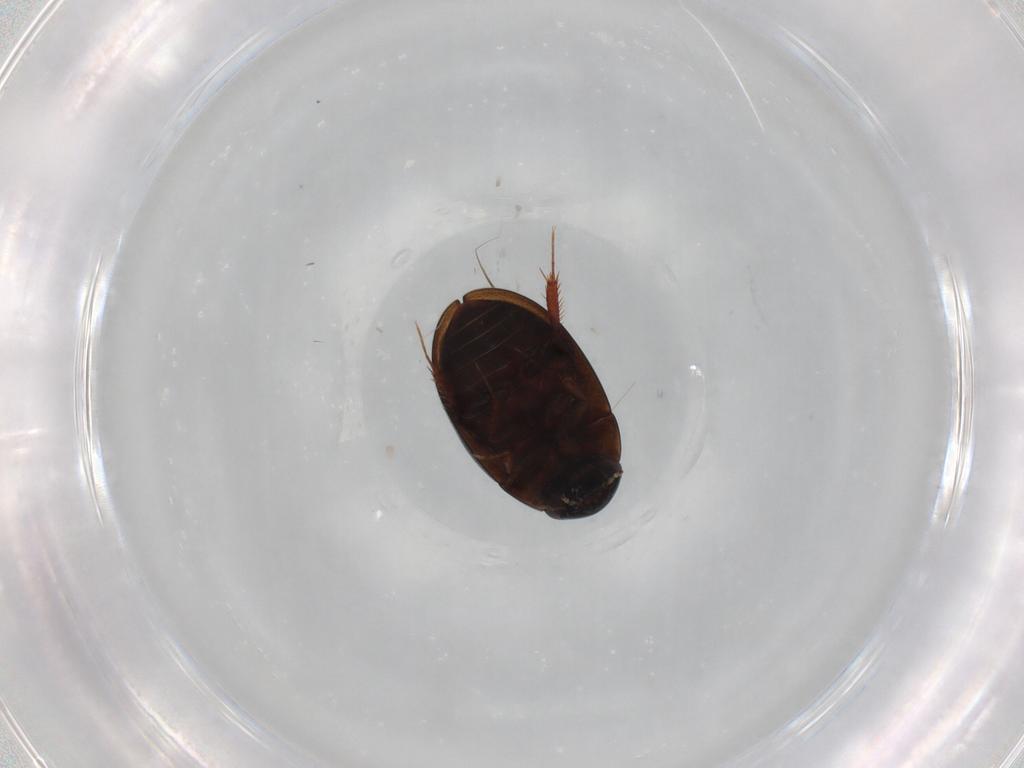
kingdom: Animalia
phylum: Arthropoda
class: Insecta
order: Coleoptera
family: Hydrophilidae
